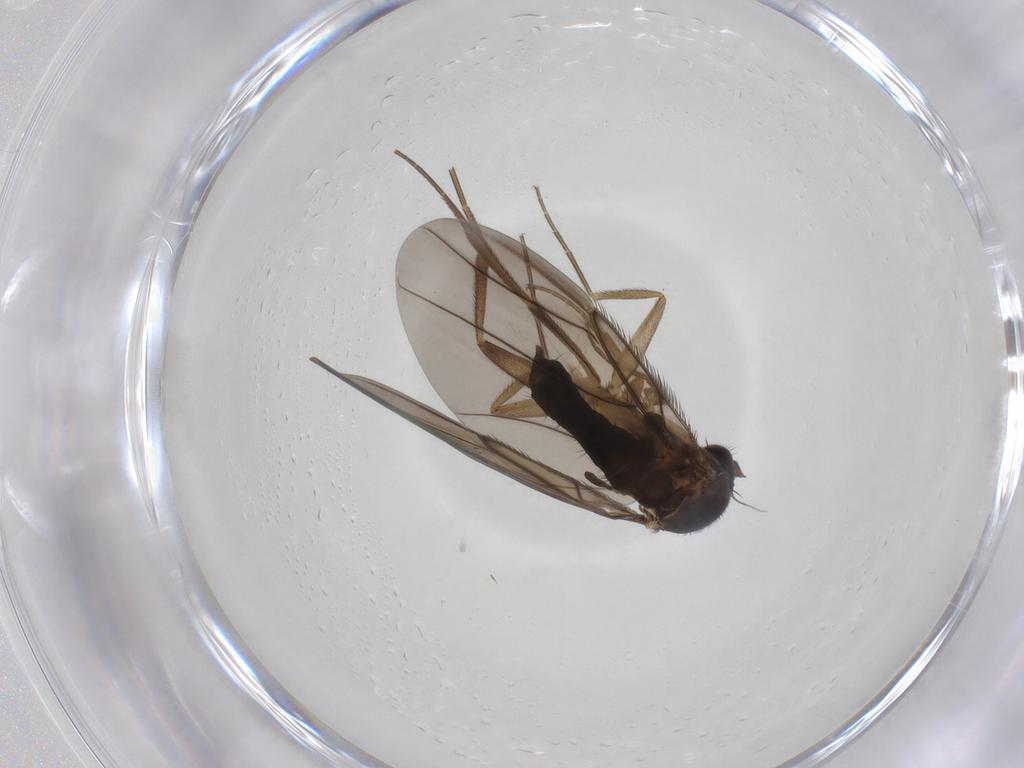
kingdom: Animalia
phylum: Arthropoda
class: Insecta
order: Diptera
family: Phoridae
